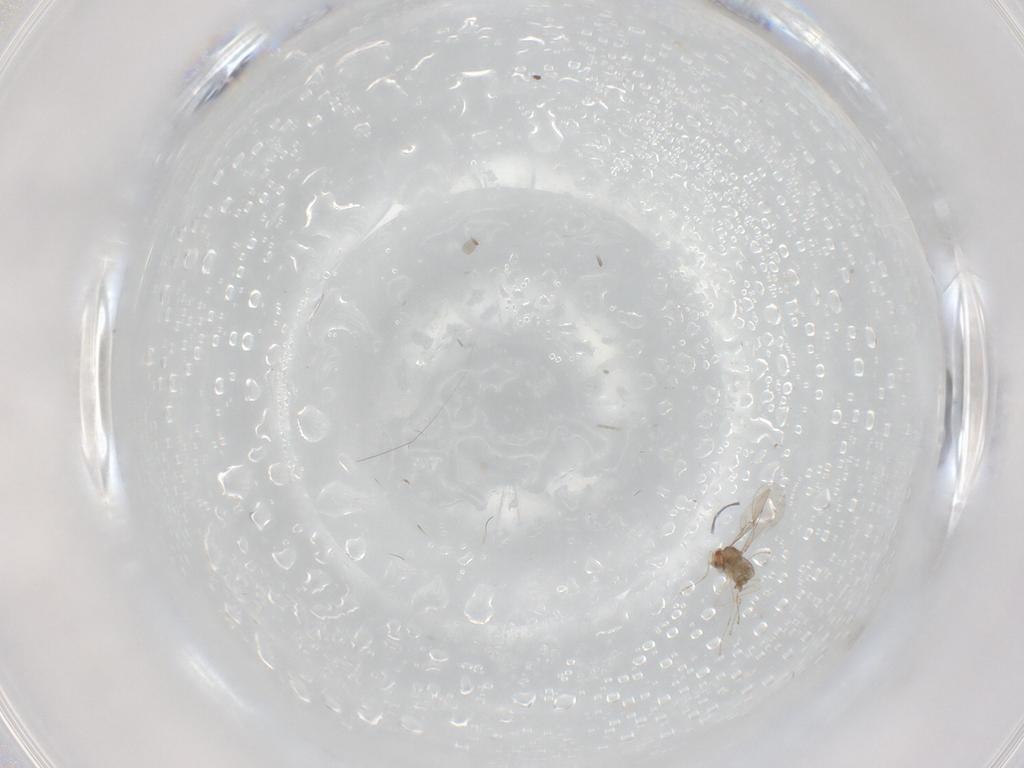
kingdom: Animalia
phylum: Arthropoda
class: Insecta
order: Diptera
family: Cecidomyiidae
